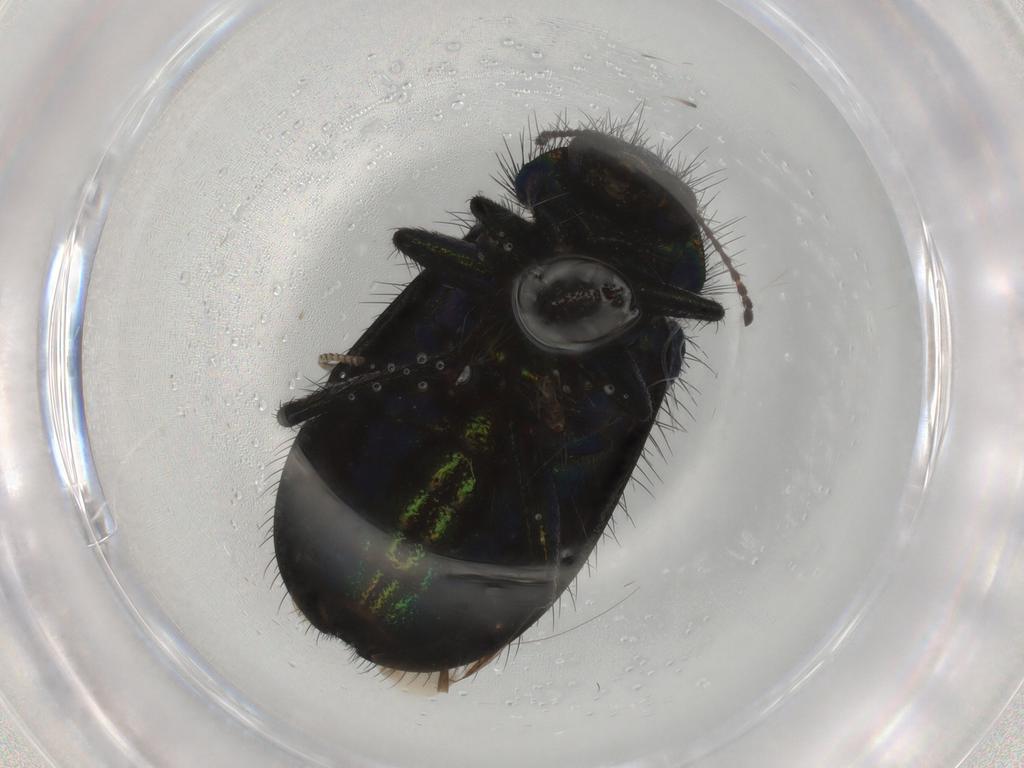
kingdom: Animalia
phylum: Arthropoda
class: Insecta
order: Coleoptera
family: Melyridae
